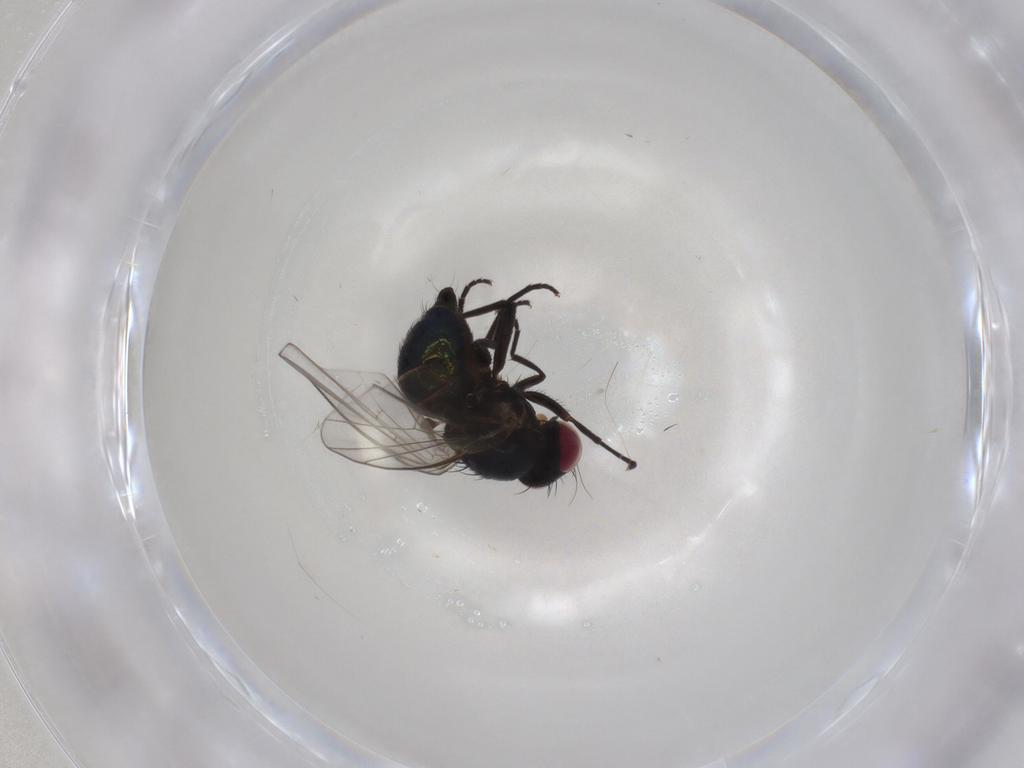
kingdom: Animalia
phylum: Arthropoda
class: Insecta
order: Diptera
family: Agromyzidae
